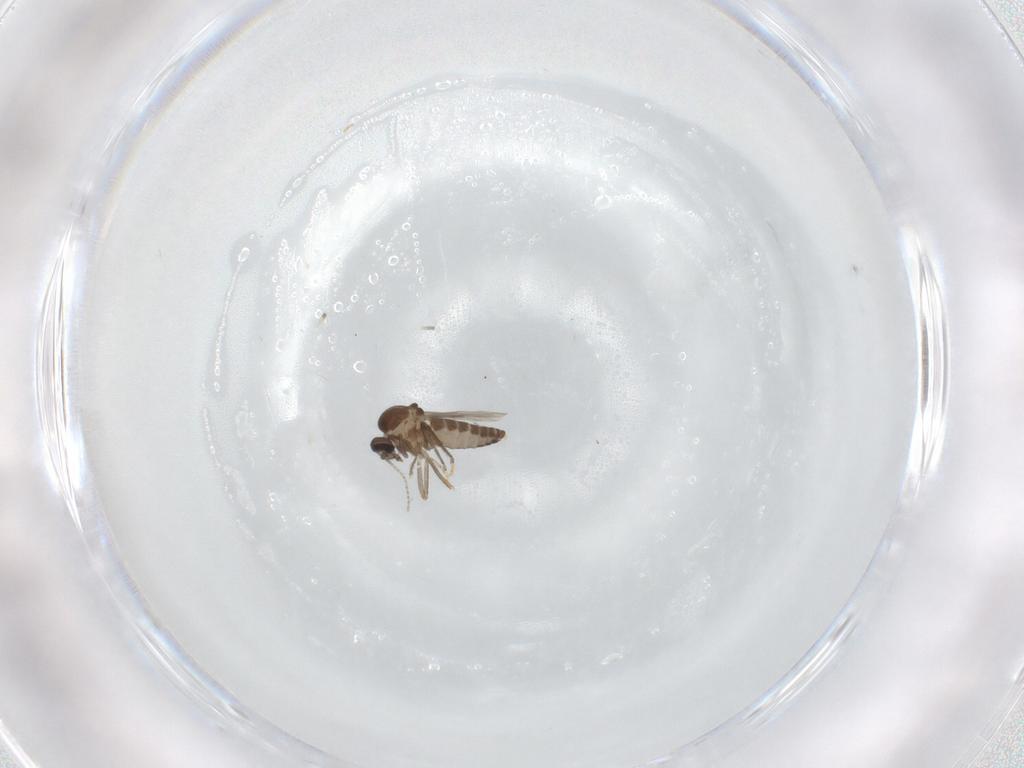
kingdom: Animalia
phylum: Arthropoda
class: Insecta
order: Diptera
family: Ceratopogonidae
